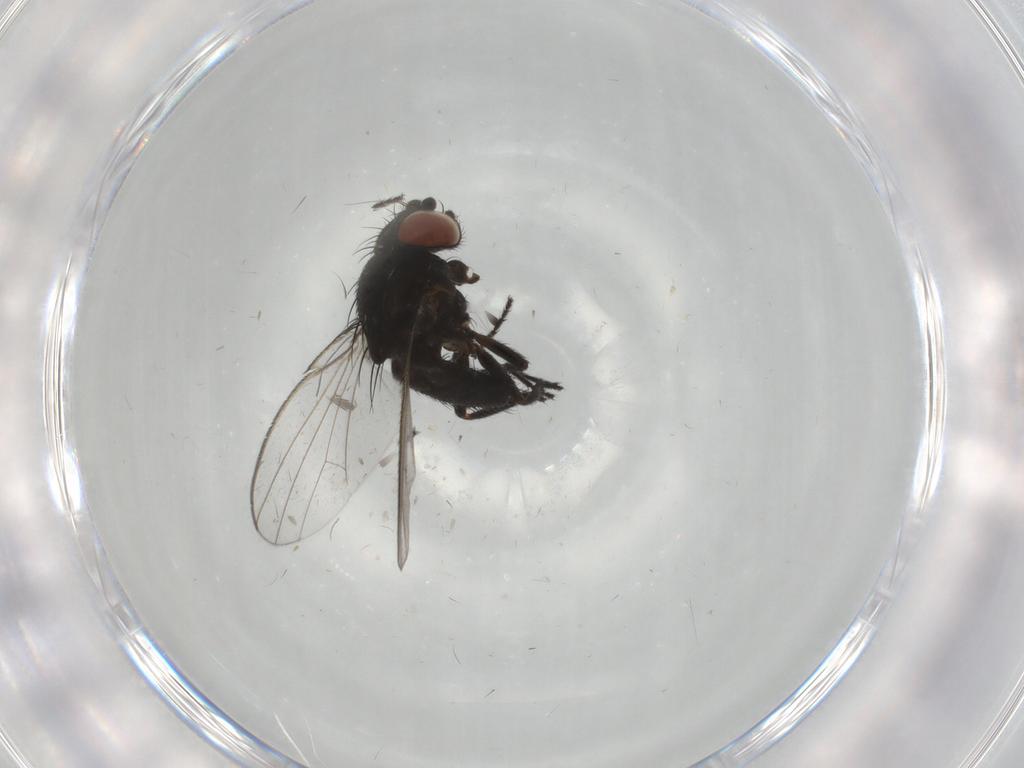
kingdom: Animalia
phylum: Arthropoda
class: Insecta
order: Diptera
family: Milichiidae
